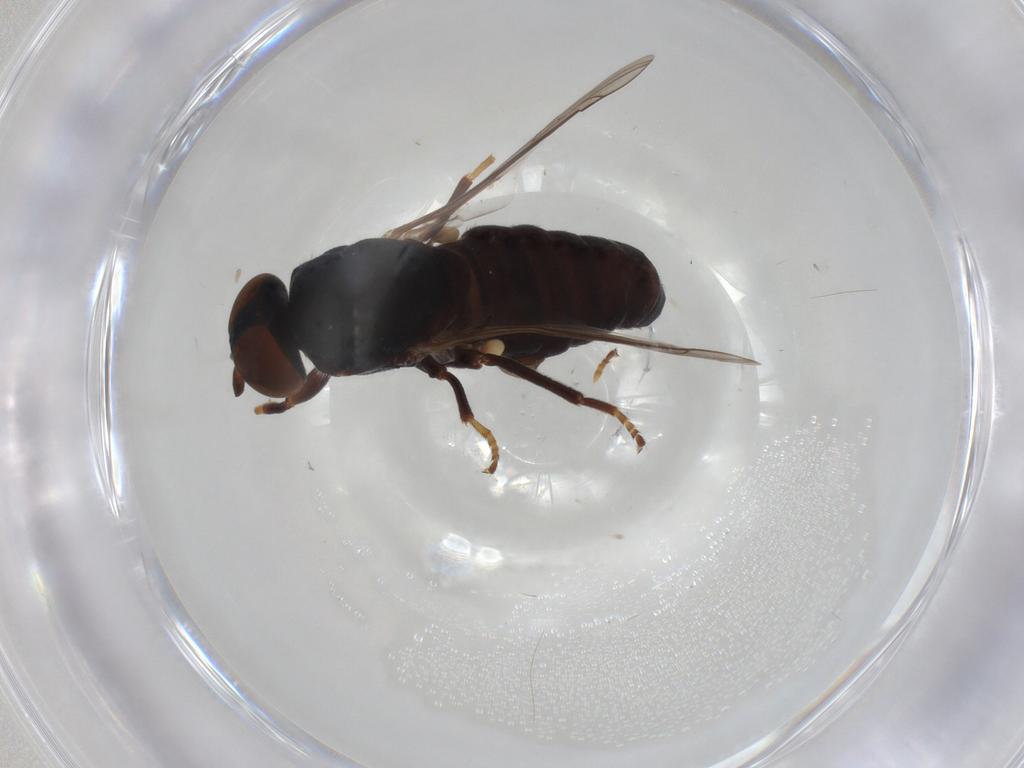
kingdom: Animalia
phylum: Arthropoda
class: Insecta
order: Diptera
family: Scenopinidae
